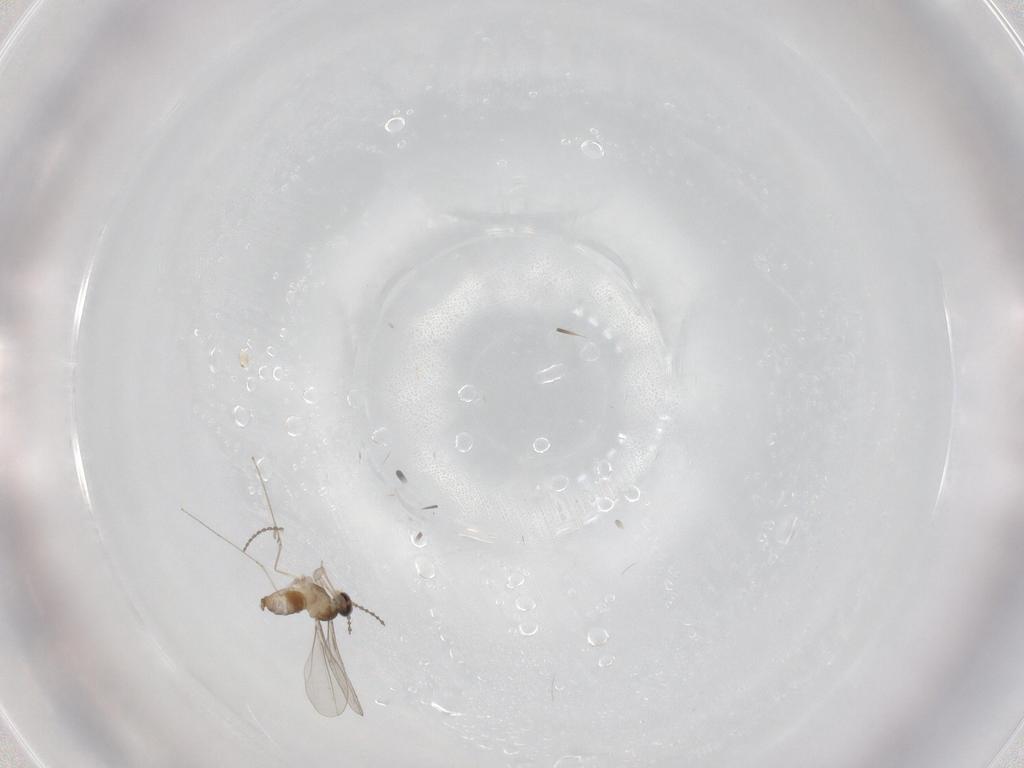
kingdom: Animalia
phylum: Arthropoda
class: Insecta
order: Diptera
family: Cecidomyiidae
